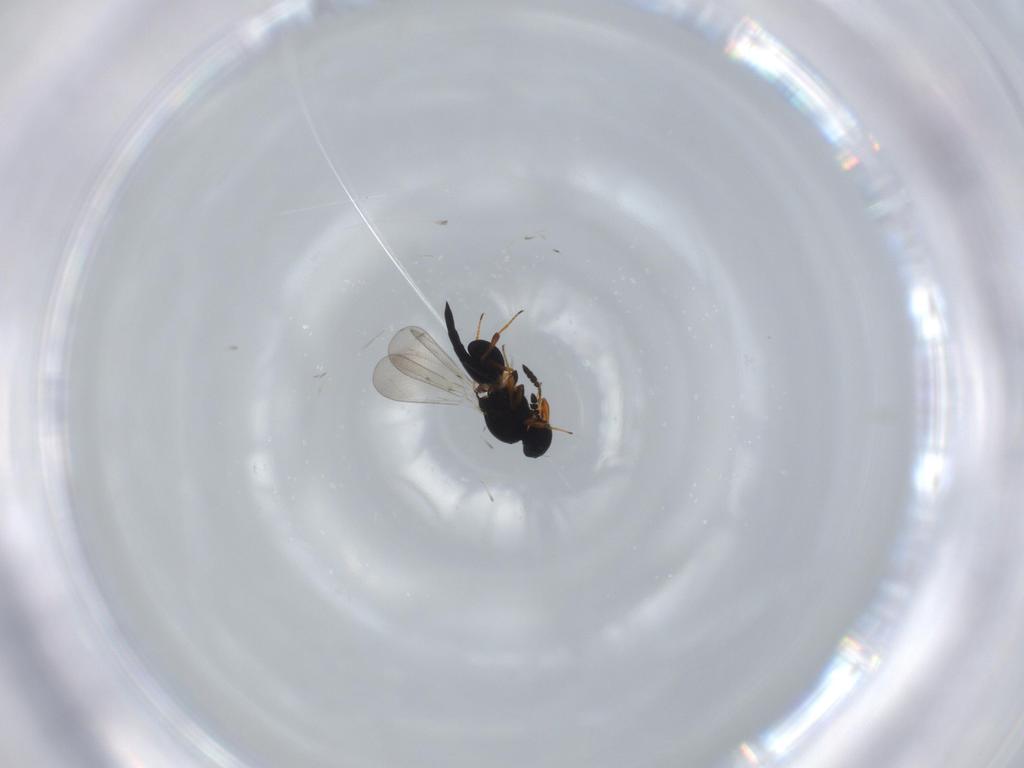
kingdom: Animalia
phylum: Arthropoda
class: Insecta
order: Hymenoptera
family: Platygastridae
